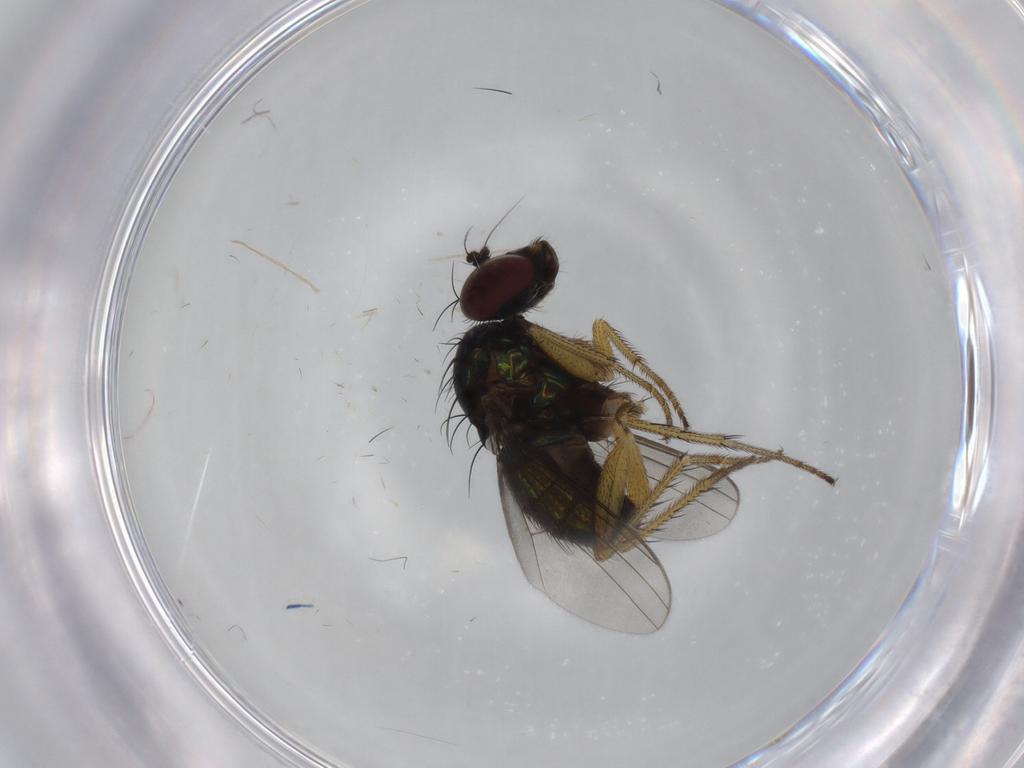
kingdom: Animalia
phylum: Arthropoda
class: Insecta
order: Diptera
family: Dolichopodidae
